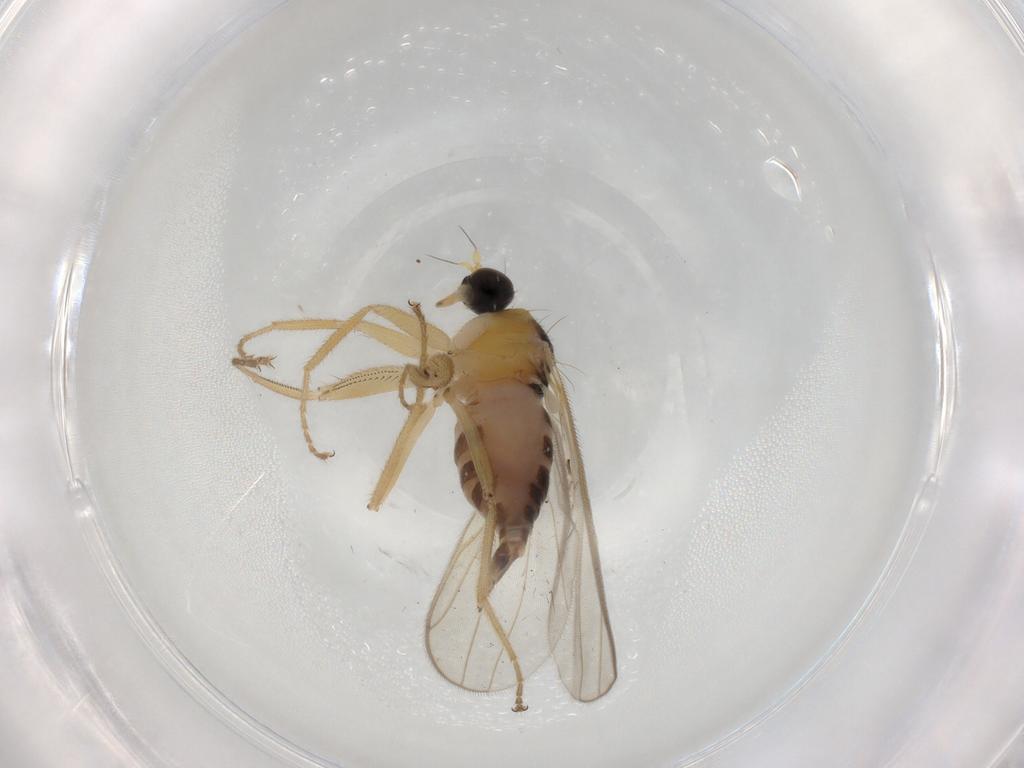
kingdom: Animalia
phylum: Arthropoda
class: Insecta
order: Diptera
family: Hybotidae
